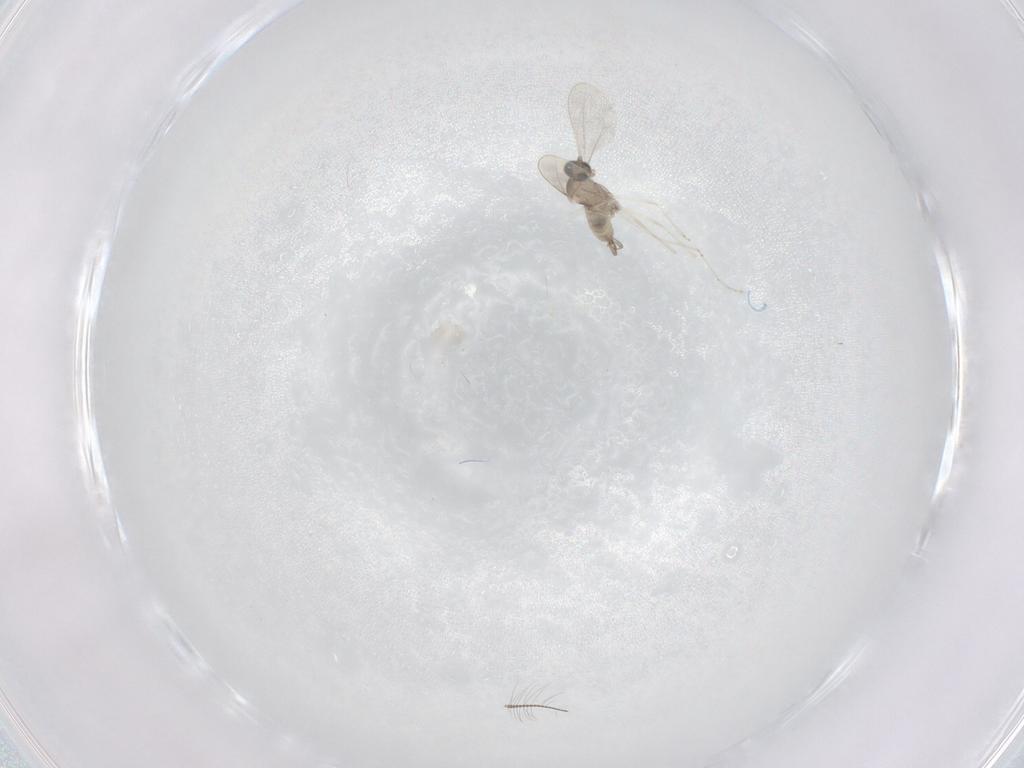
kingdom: Animalia
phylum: Arthropoda
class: Insecta
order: Diptera
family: Cecidomyiidae
